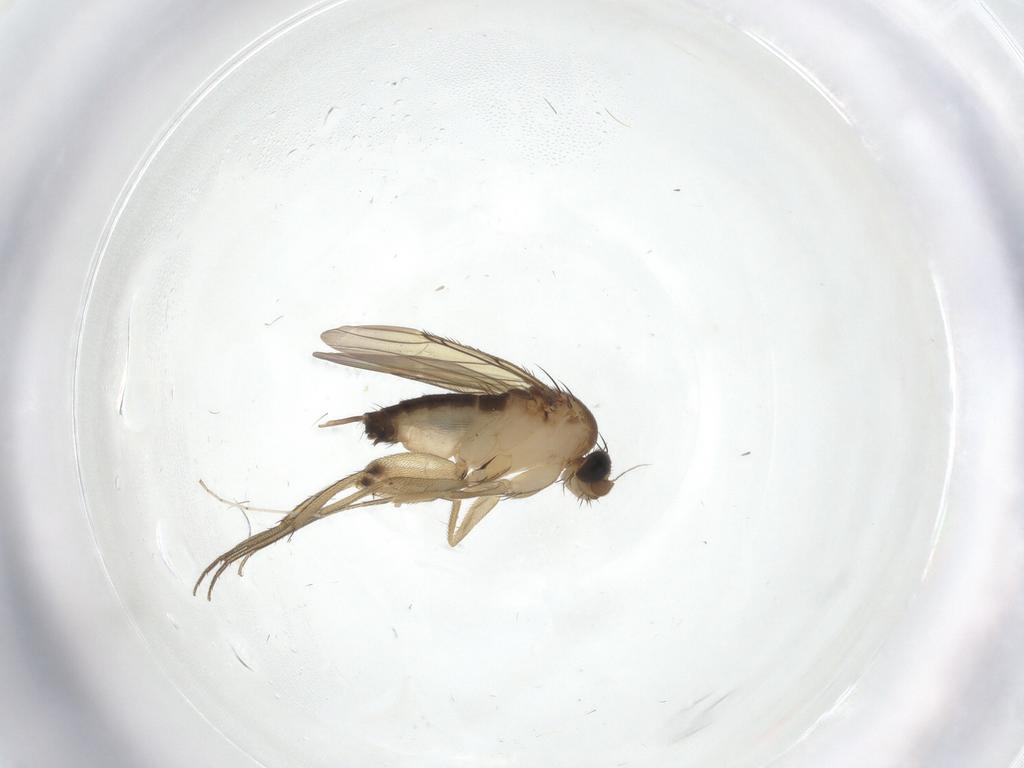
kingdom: Animalia
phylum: Arthropoda
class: Insecta
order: Diptera
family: Phoridae
